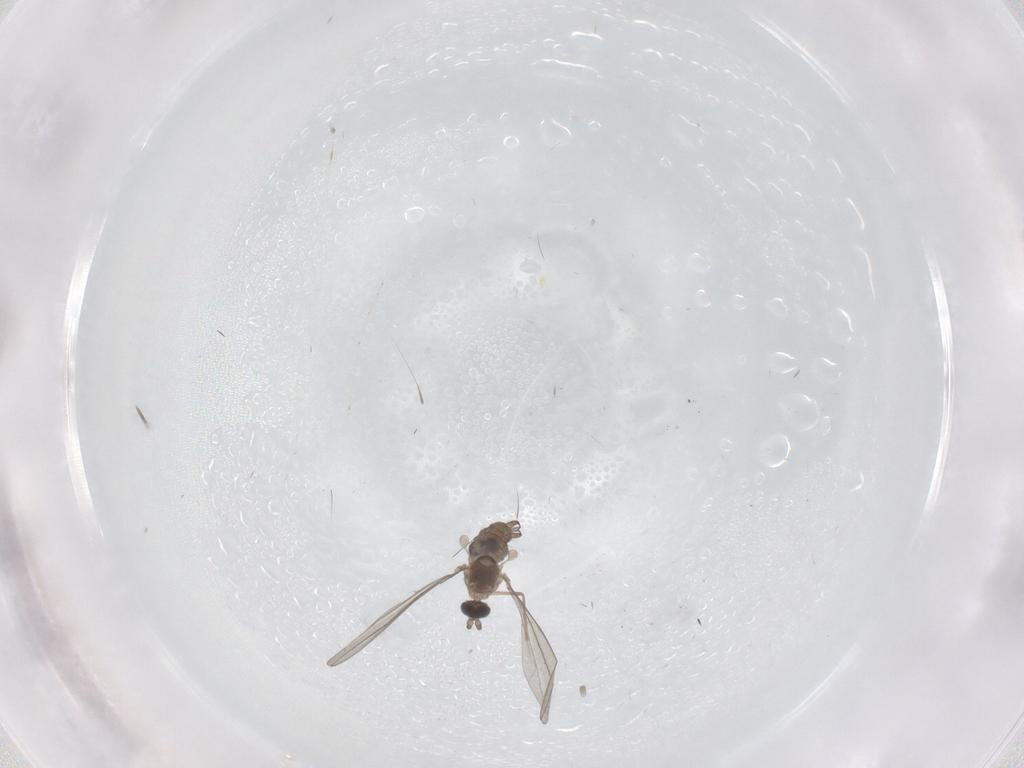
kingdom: Animalia
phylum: Arthropoda
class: Insecta
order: Diptera
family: Cecidomyiidae
